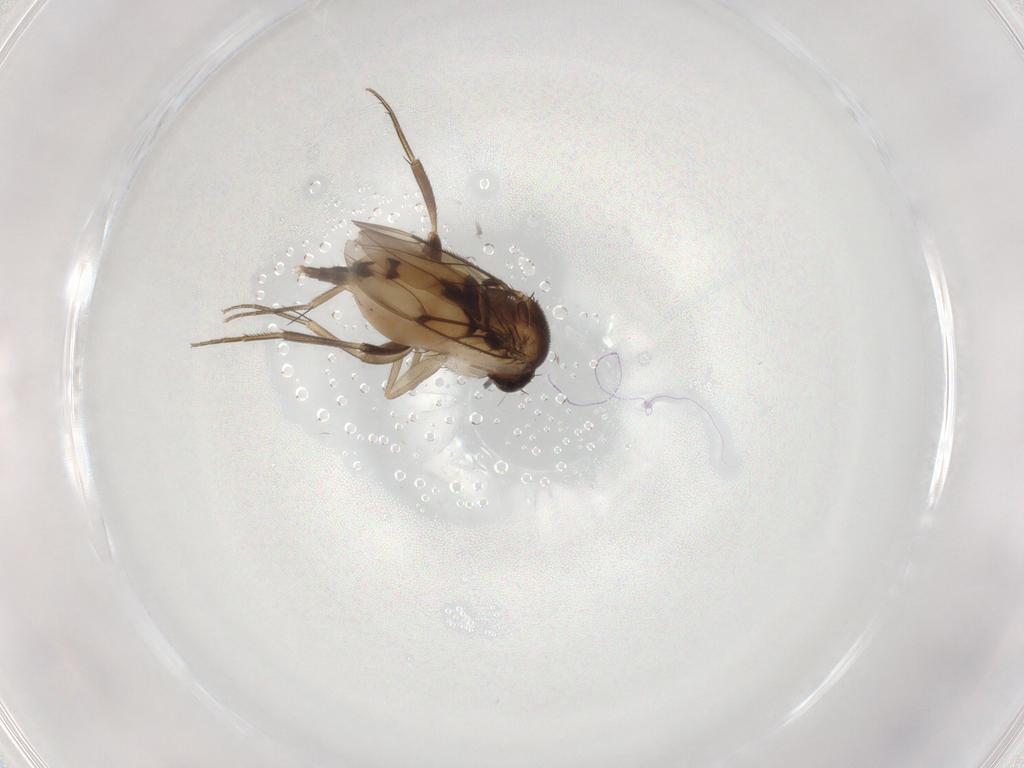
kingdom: Animalia
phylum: Arthropoda
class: Insecta
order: Diptera
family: Phoridae
